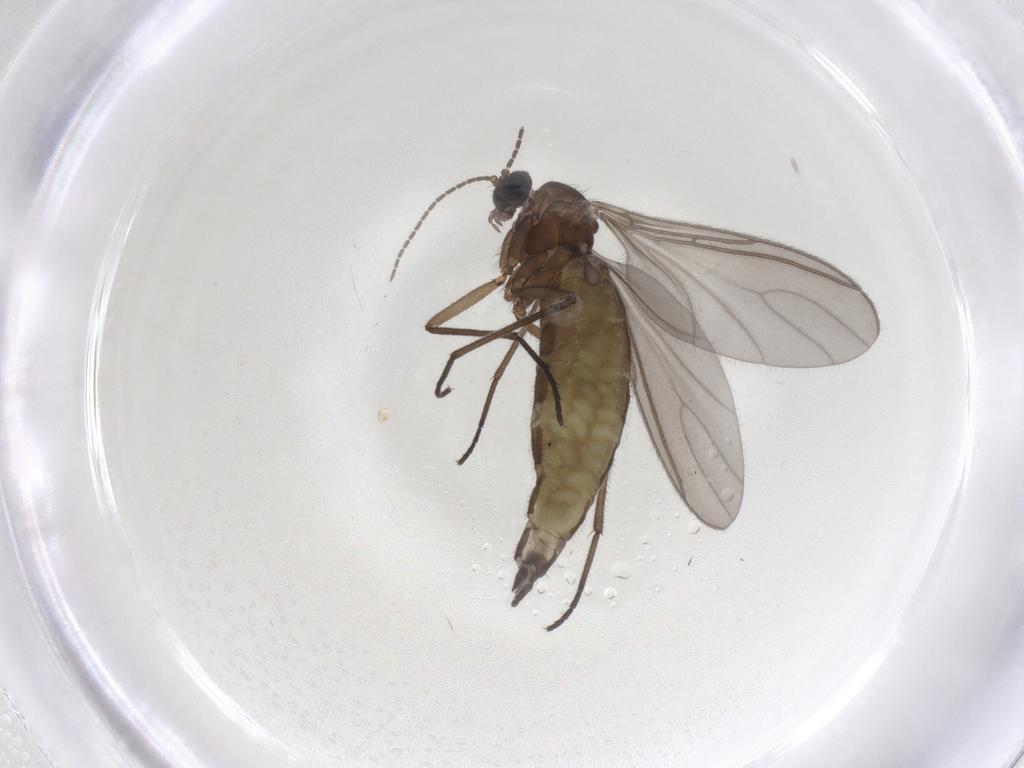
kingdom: Animalia
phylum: Arthropoda
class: Insecta
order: Diptera
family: Sciaridae
